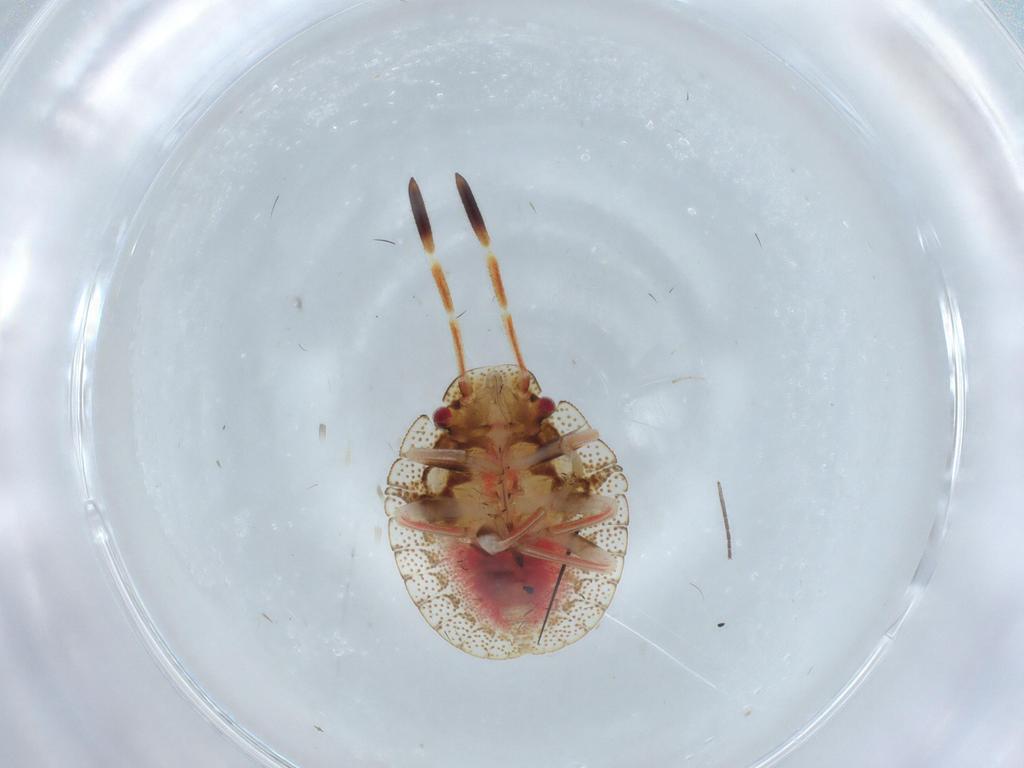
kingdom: Animalia
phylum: Arthropoda
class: Insecta
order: Hemiptera
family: Pentatomidae
